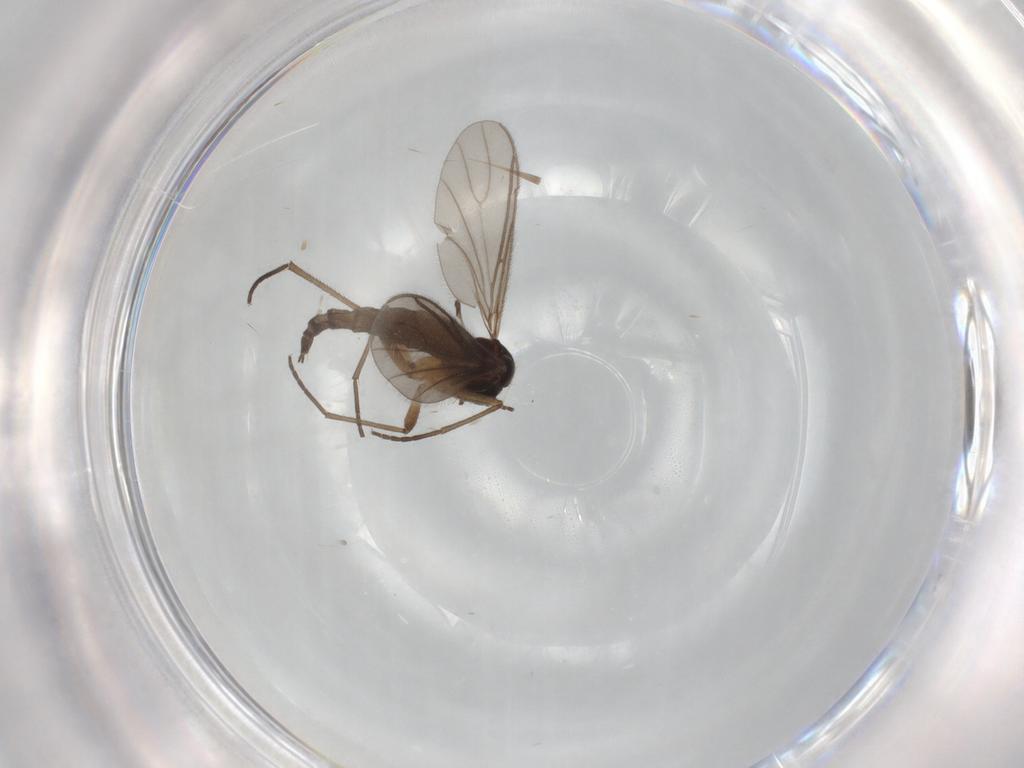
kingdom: Animalia
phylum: Arthropoda
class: Insecta
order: Diptera
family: Sciaridae
